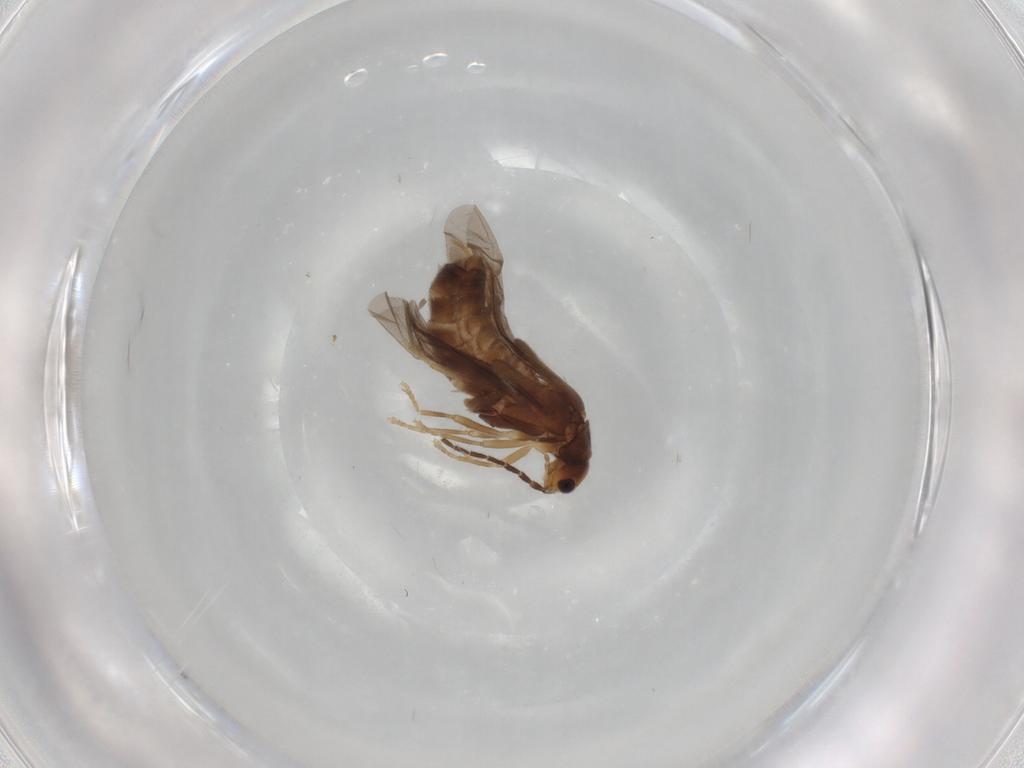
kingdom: Animalia
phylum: Arthropoda
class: Insecta
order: Coleoptera
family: Cantharidae
